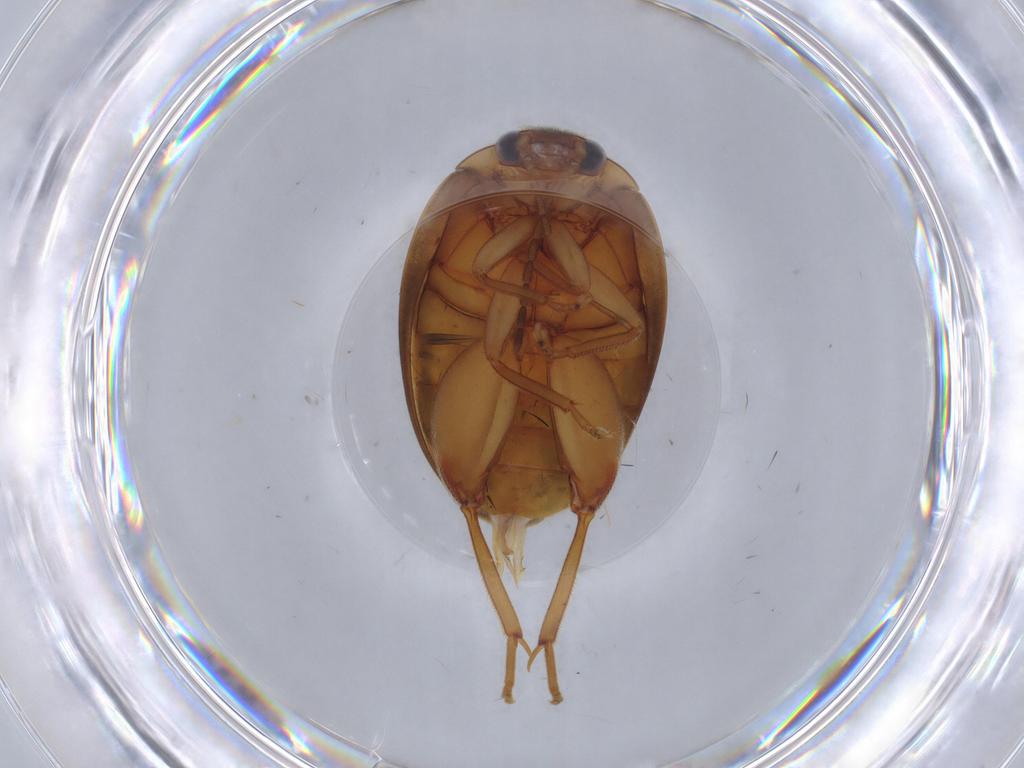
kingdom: Animalia
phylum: Arthropoda
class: Insecta
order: Coleoptera
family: Scirtidae
